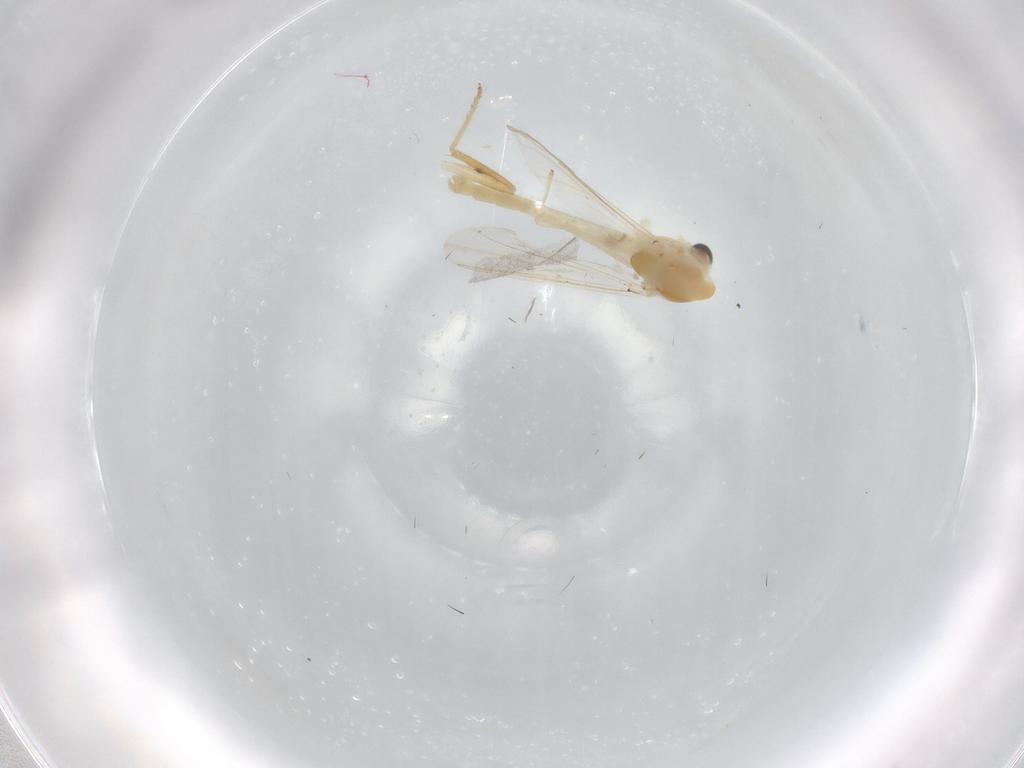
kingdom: Animalia
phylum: Arthropoda
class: Insecta
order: Diptera
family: Chironomidae
